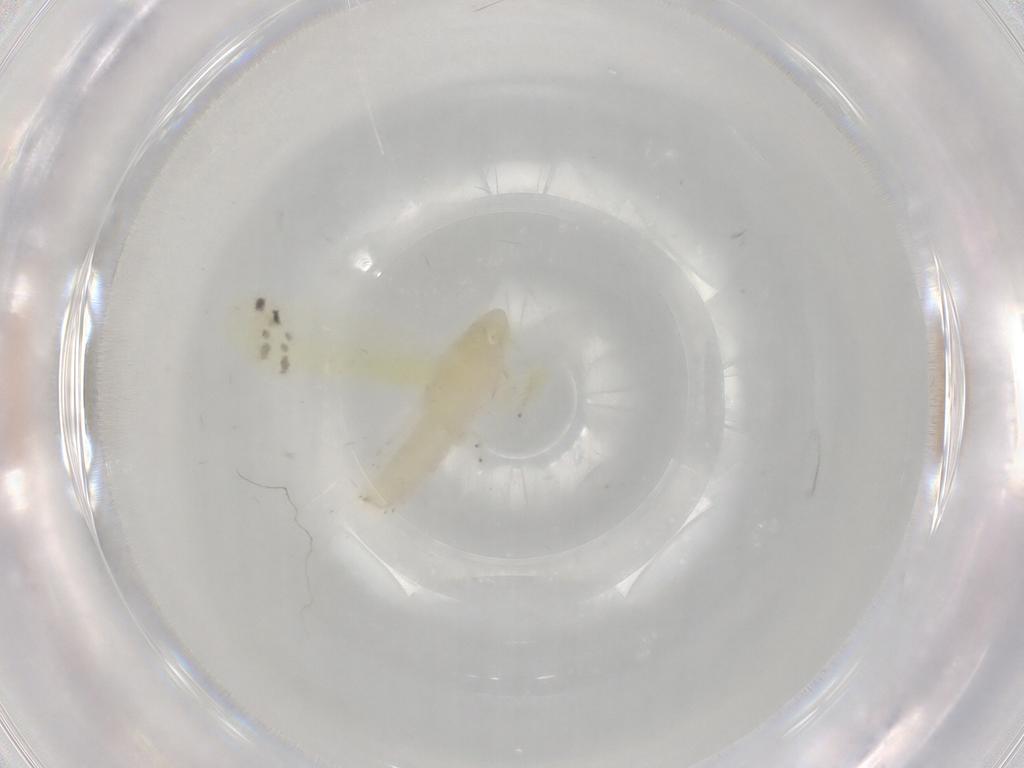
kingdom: Animalia
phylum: Arthropoda
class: Insecta
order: Hemiptera
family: Cicadellidae
